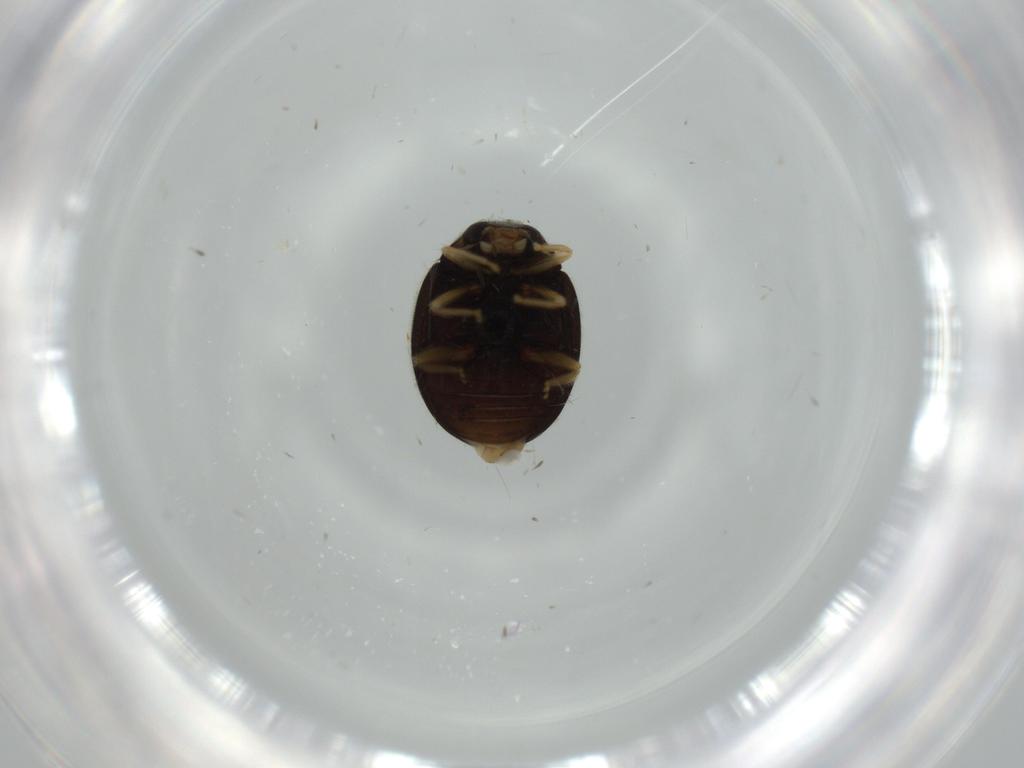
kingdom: Animalia
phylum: Arthropoda
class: Insecta
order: Coleoptera
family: Coccinellidae
